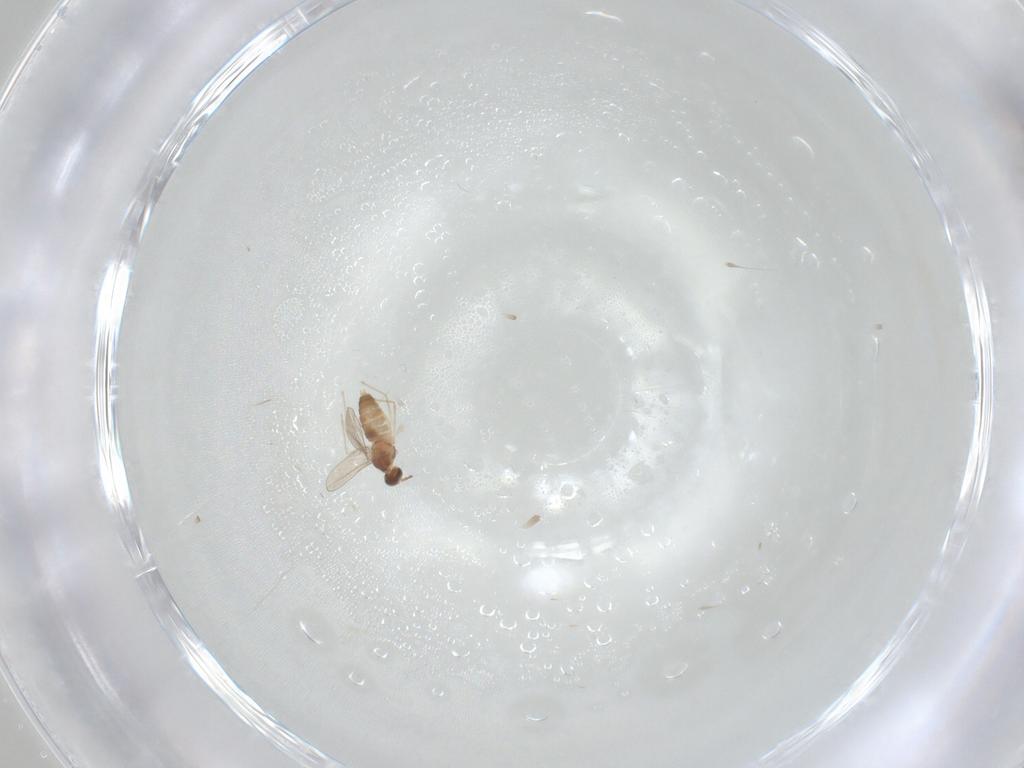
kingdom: Animalia
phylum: Arthropoda
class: Insecta
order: Diptera
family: Cecidomyiidae
